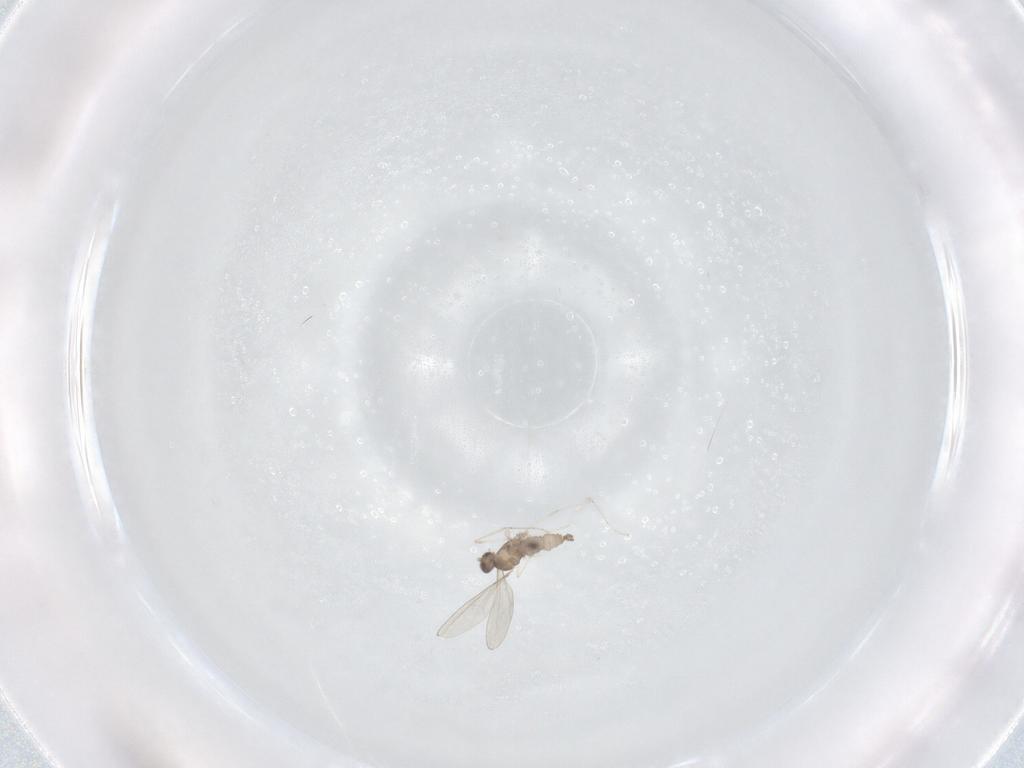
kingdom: Animalia
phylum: Arthropoda
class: Insecta
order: Diptera
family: Cecidomyiidae
